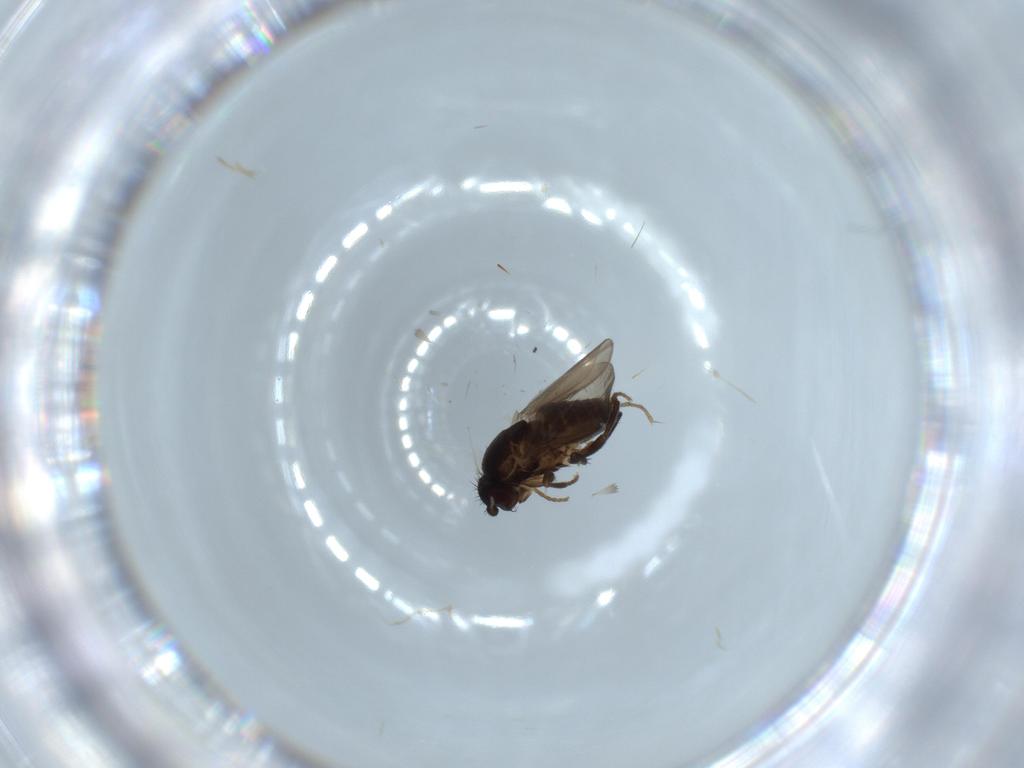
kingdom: Animalia
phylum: Arthropoda
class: Insecta
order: Diptera
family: Sphaeroceridae
